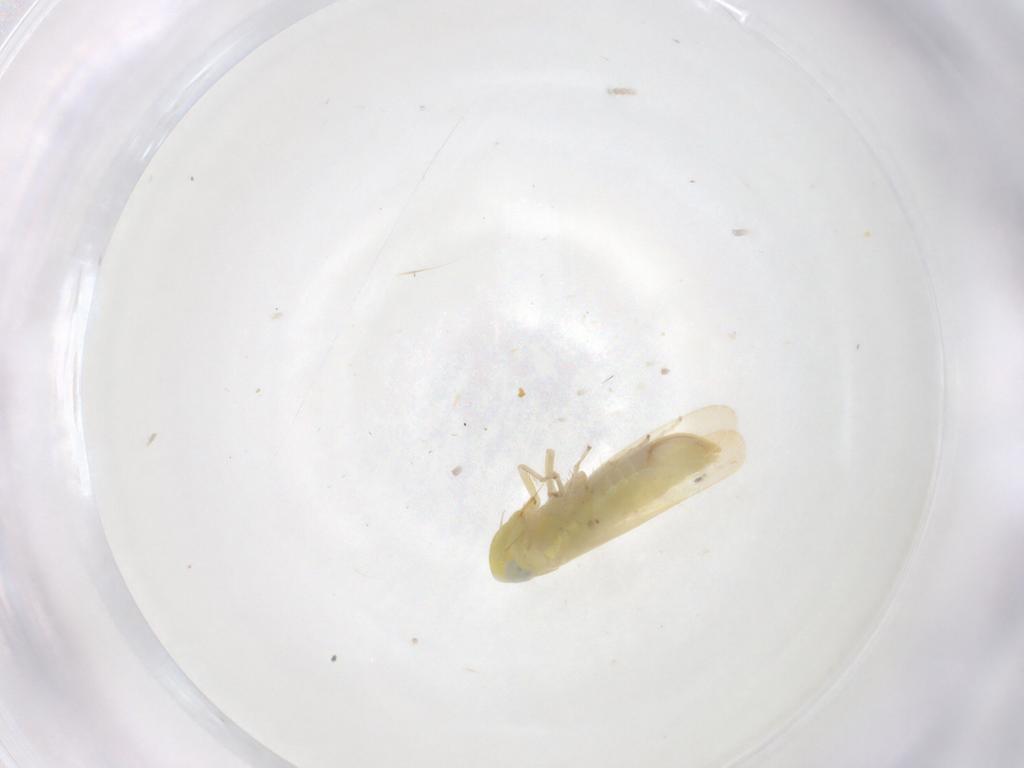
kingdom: Animalia
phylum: Arthropoda
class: Insecta
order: Hemiptera
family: Cicadellidae
